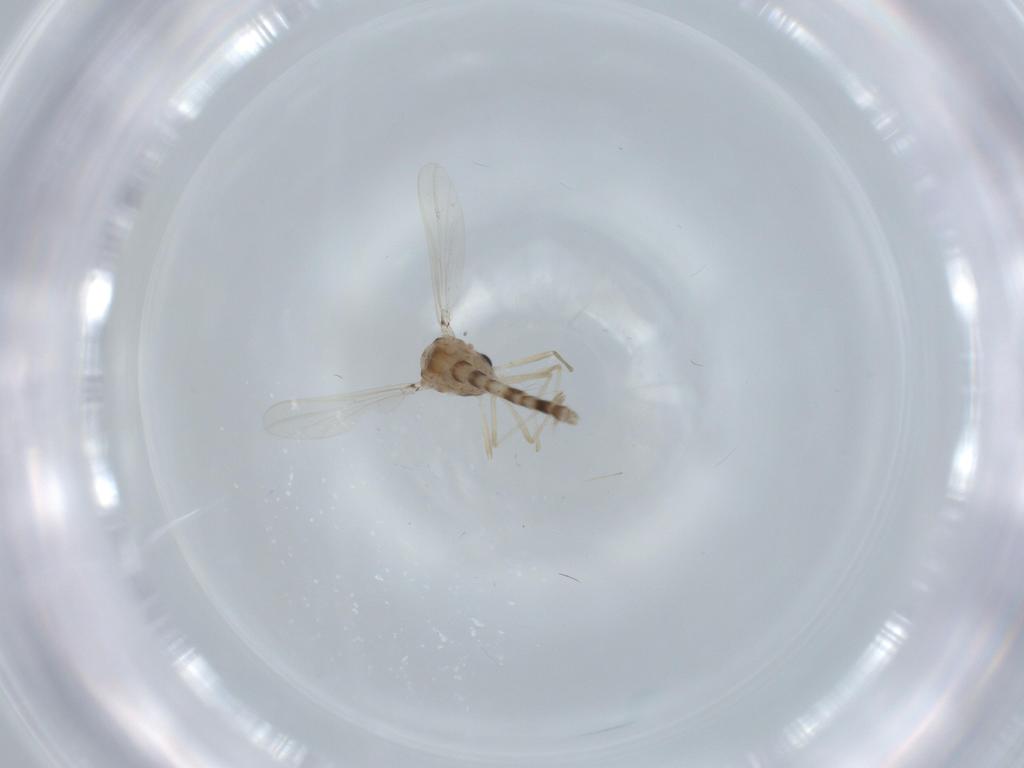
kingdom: Animalia
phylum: Arthropoda
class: Insecta
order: Diptera
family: Chironomidae
